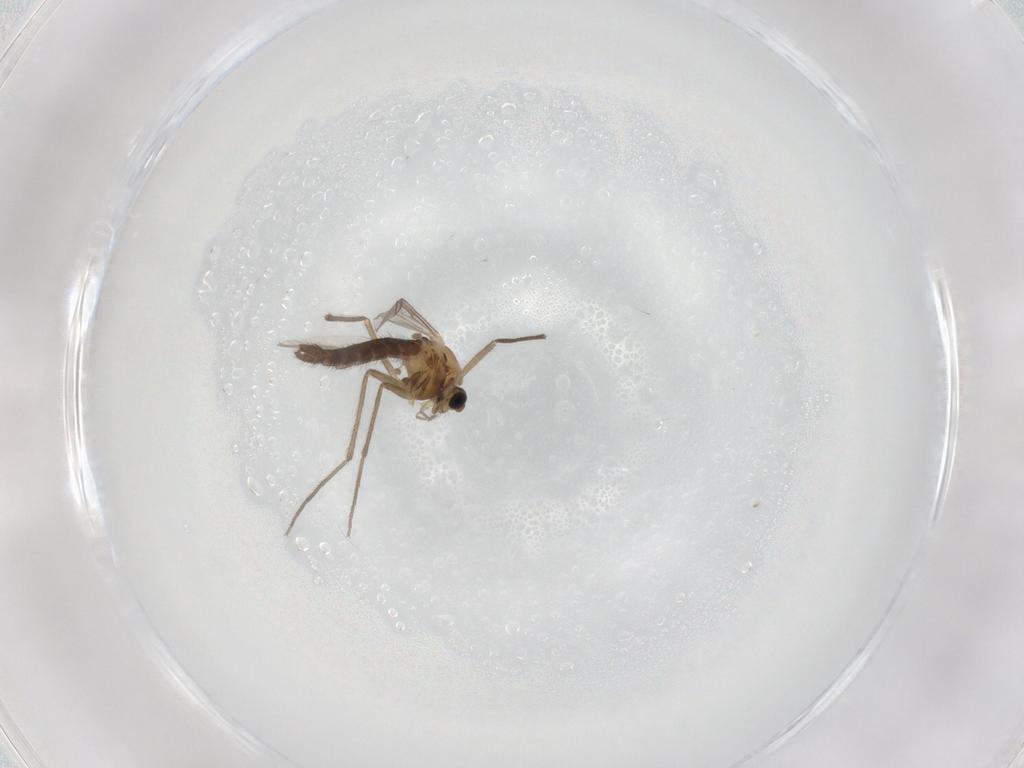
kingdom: Animalia
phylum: Arthropoda
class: Insecta
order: Diptera
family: Chironomidae
